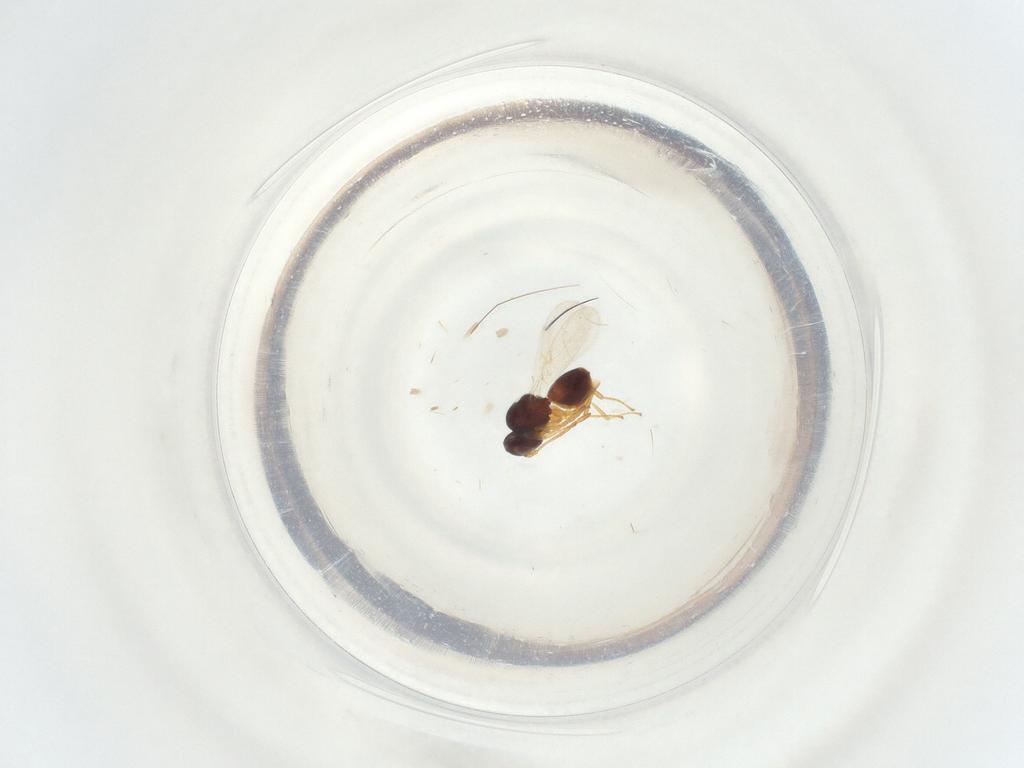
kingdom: Animalia
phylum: Arthropoda
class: Insecta
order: Hymenoptera
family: Figitidae
